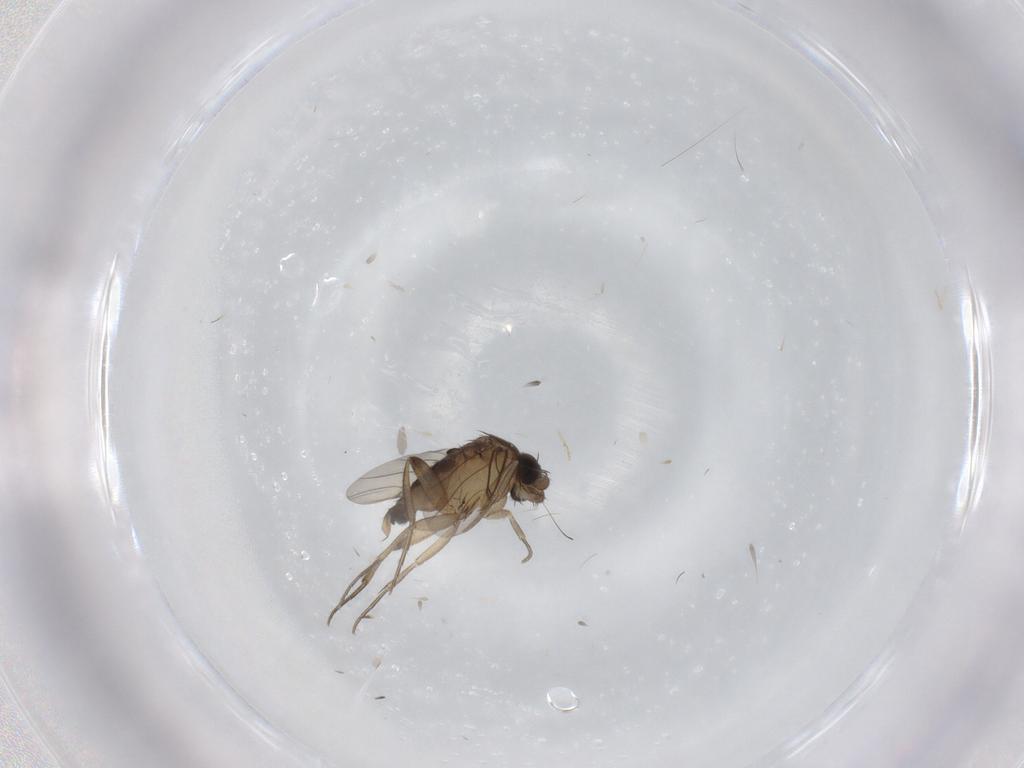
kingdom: Animalia
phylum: Arthropoda
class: Insecta
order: Diptera
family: Phoridae
